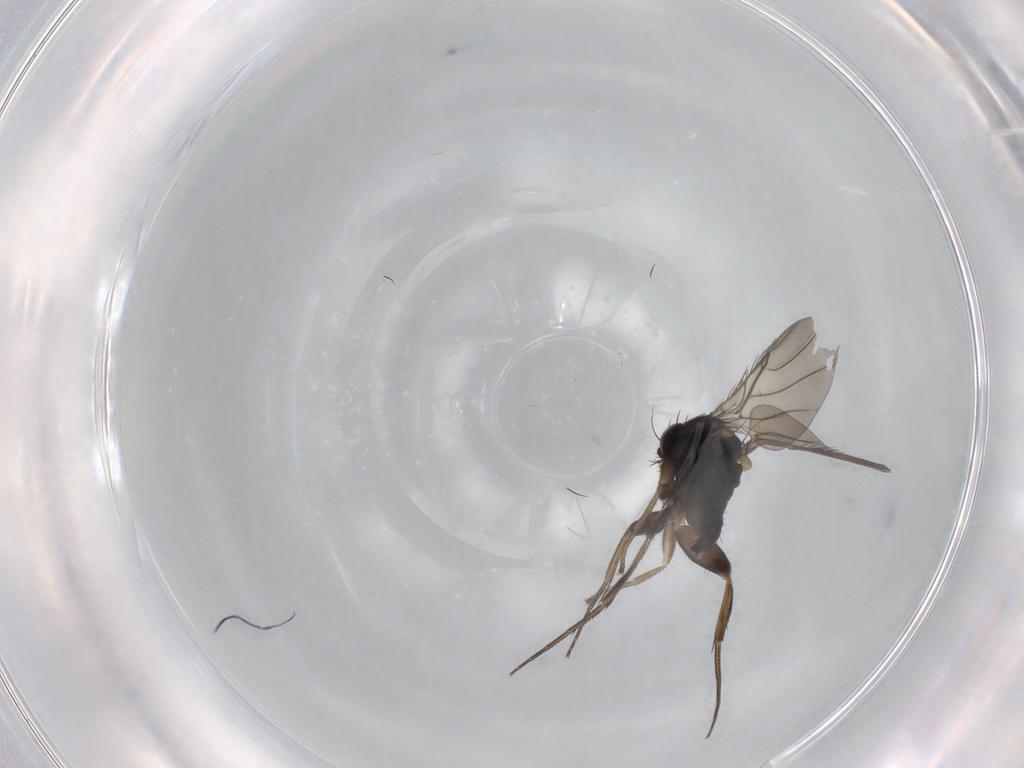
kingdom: Animalia
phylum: Arthropoda
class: Insecta
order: Diptera
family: Phoridae
